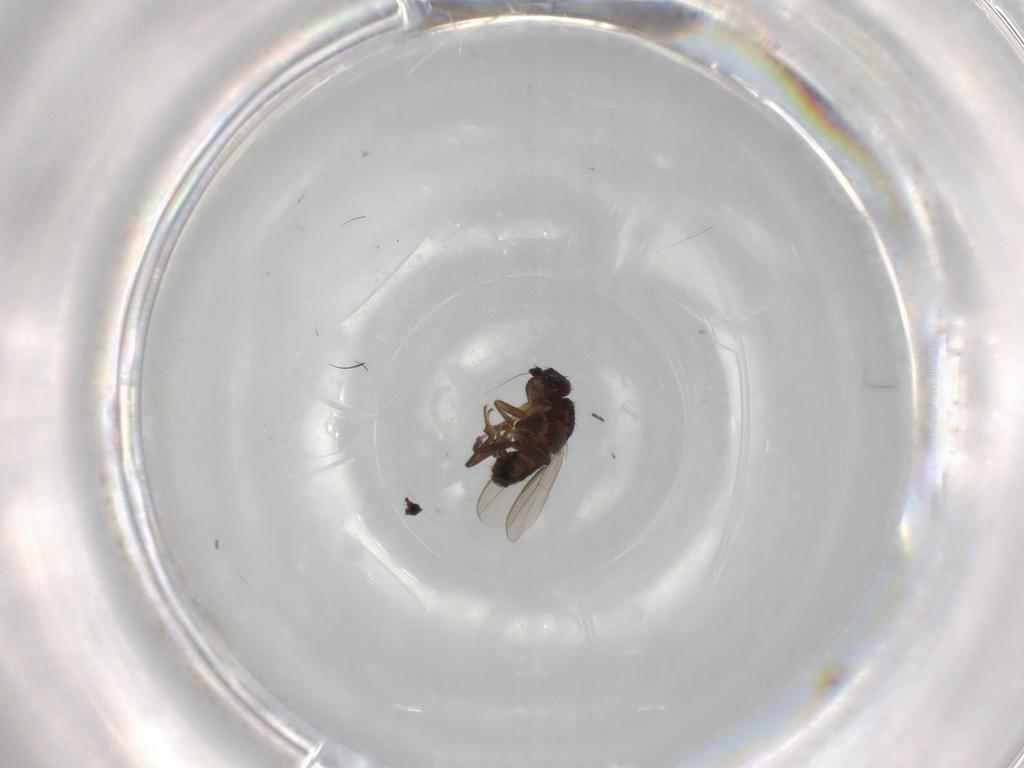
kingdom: Animalia
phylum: Arthropoda
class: Insecta
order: Diptera
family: Sphaeroceridae
